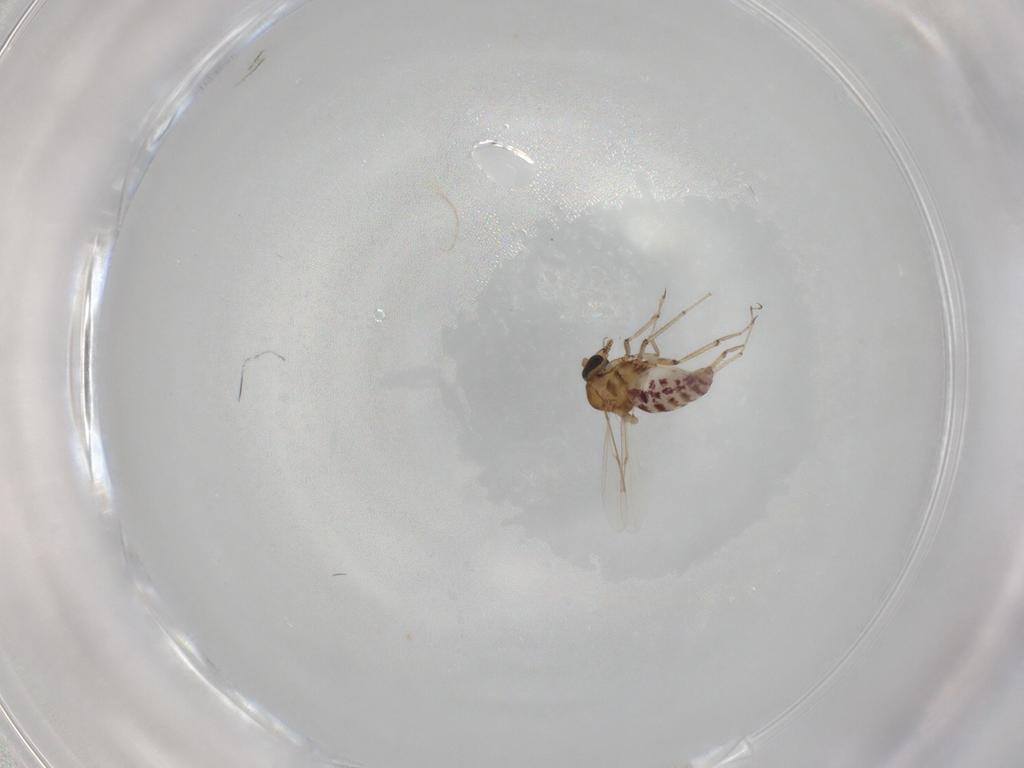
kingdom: Animalia
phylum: Arthropoda
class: Insecta
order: Diptera
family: Ceratopogonidae
